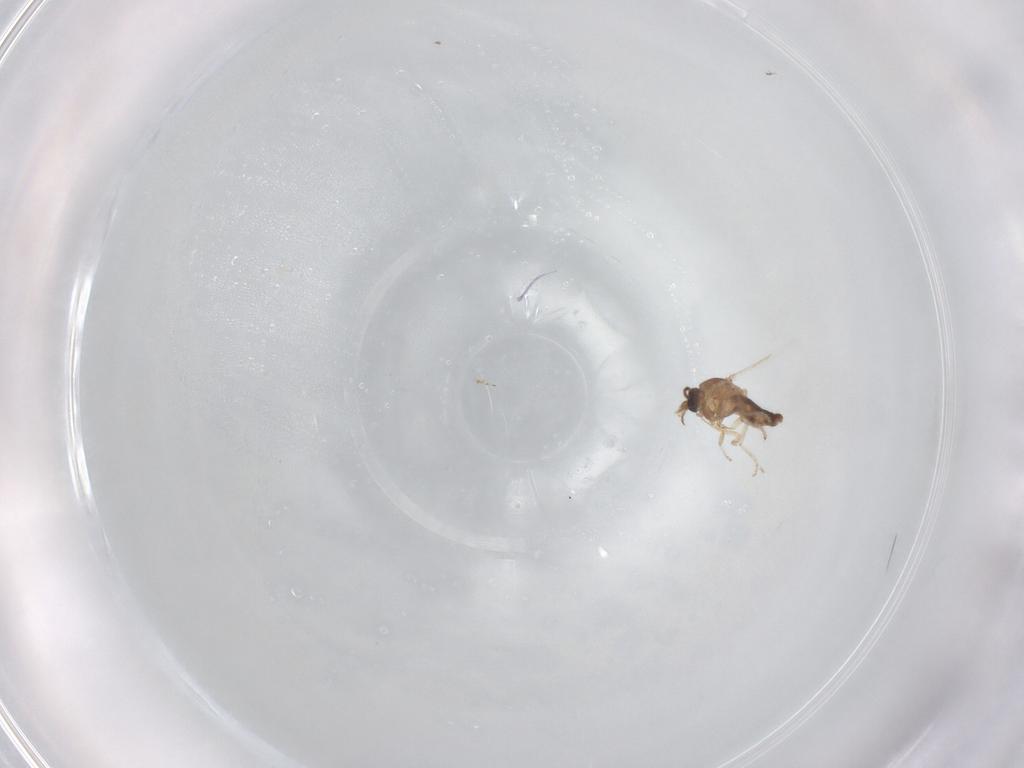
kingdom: Animalia
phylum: Arthropoda
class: Insecta
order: Diptera
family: Ceratopogonidae
